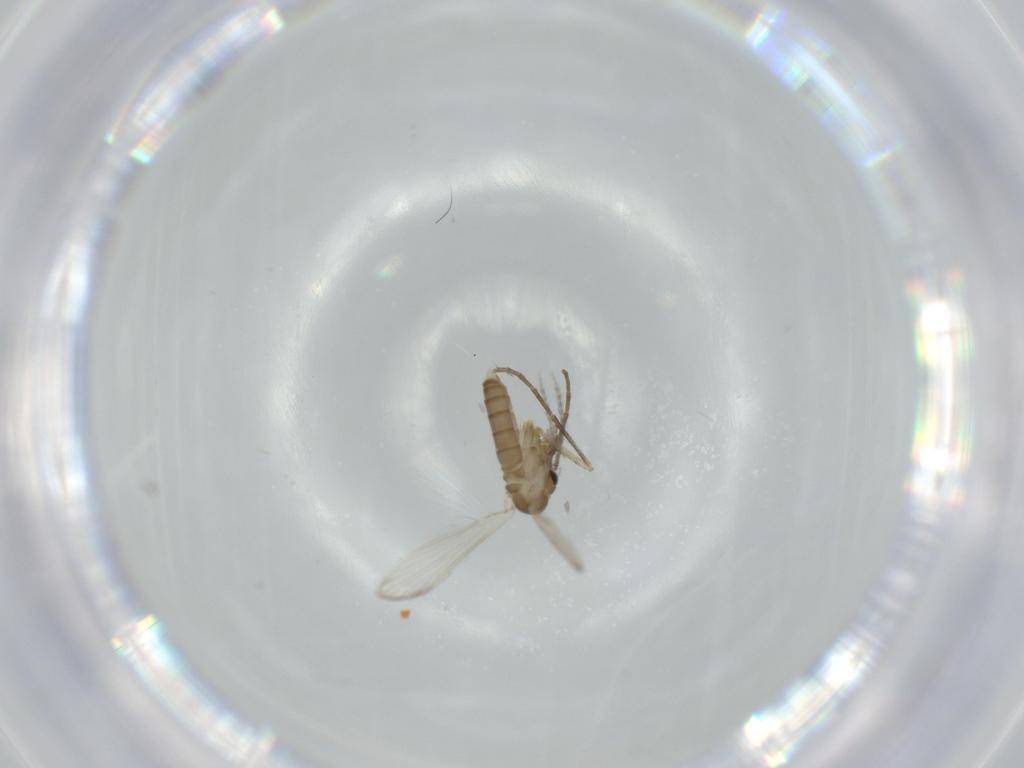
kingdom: Animalia
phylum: Arthropoda
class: Insecta
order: Diptera
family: Psychodidae
